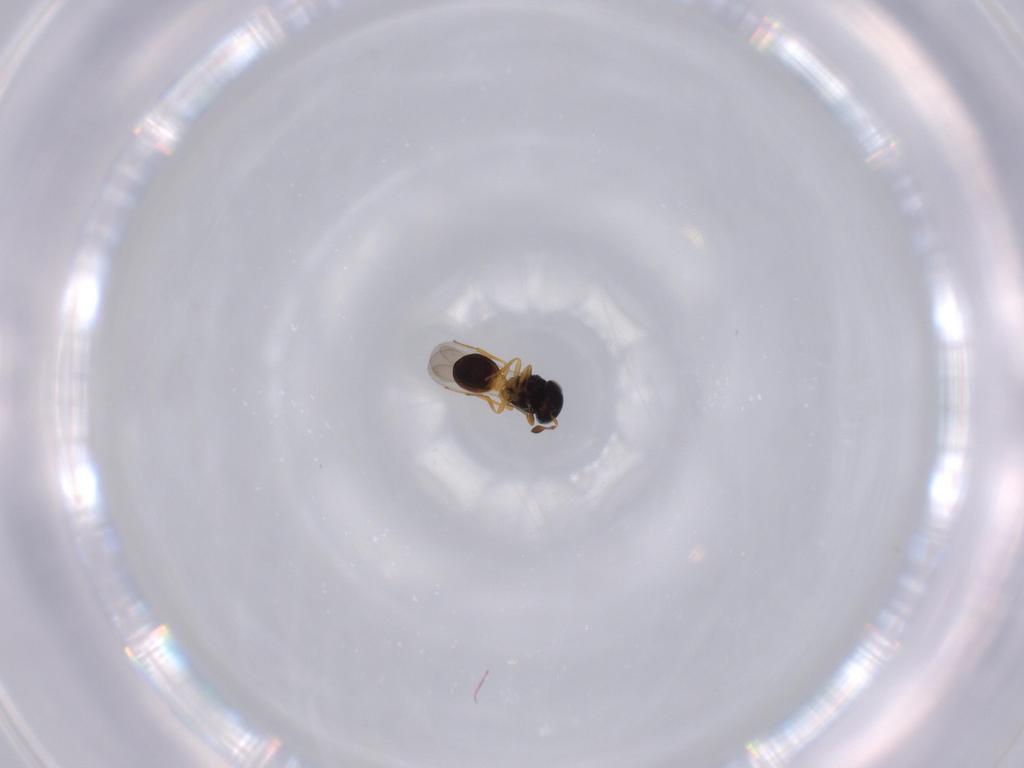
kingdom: Animalia
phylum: Arthropoda
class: Insecta
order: Hymenoptera
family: Scelionidae
